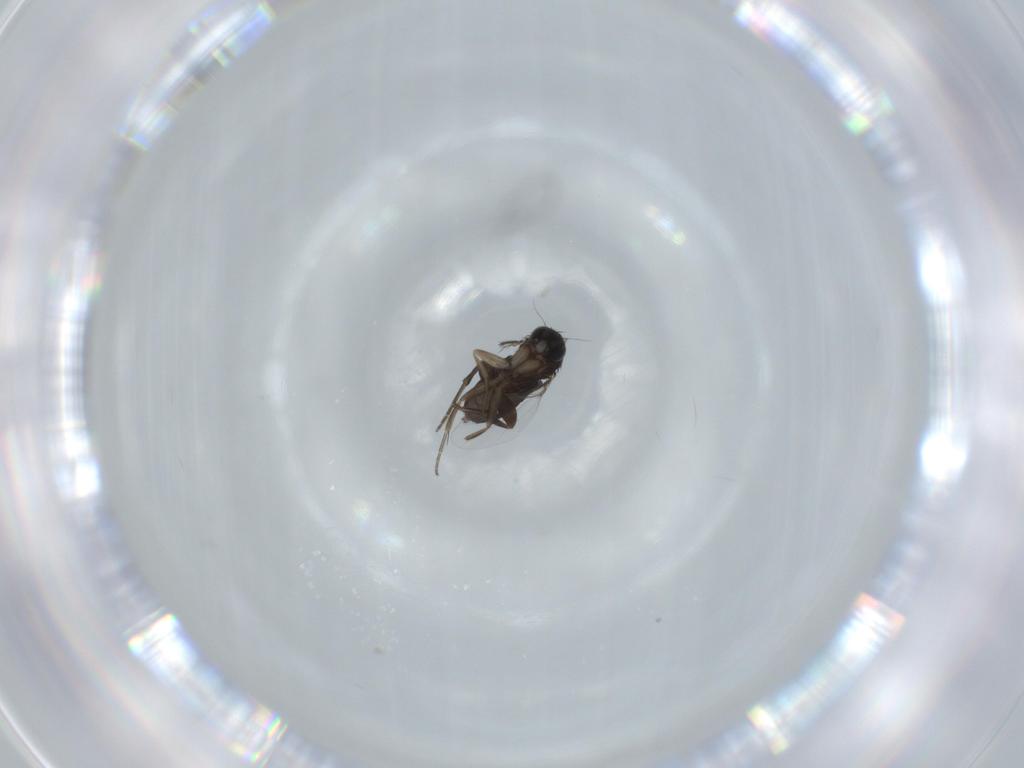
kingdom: Animalia
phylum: Arthropoda
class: Insecta
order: Diptera
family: Phoridae
